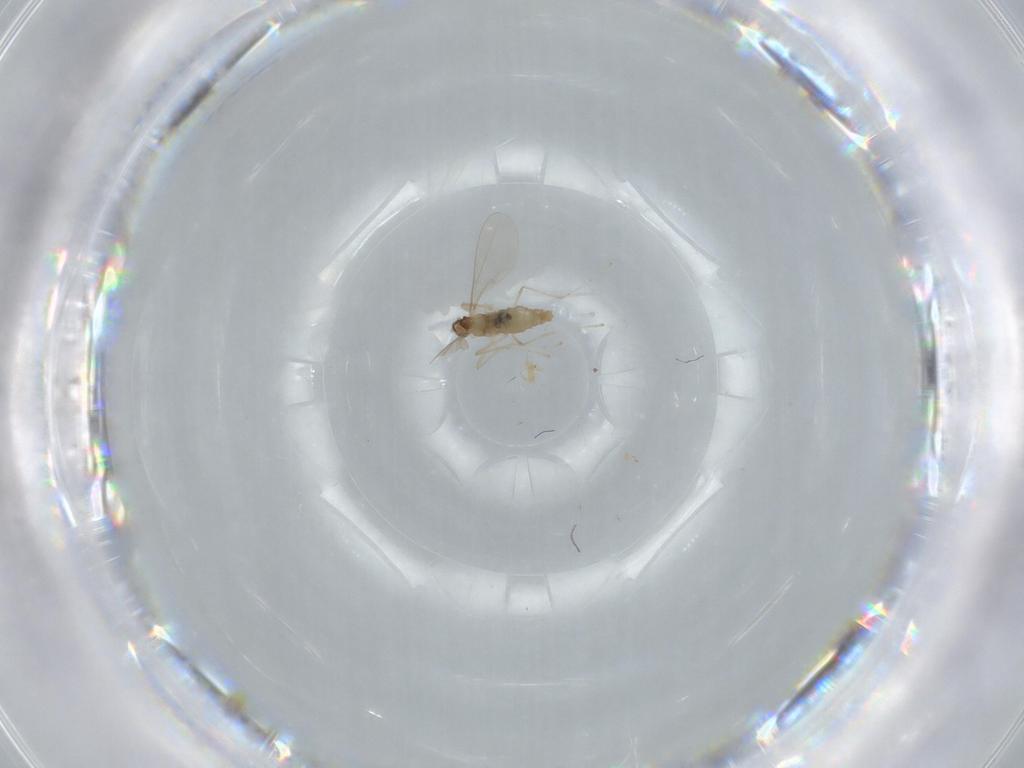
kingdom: Animalia
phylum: Arthropoda
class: Insecta
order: Diptera
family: Cecidomyiidae
